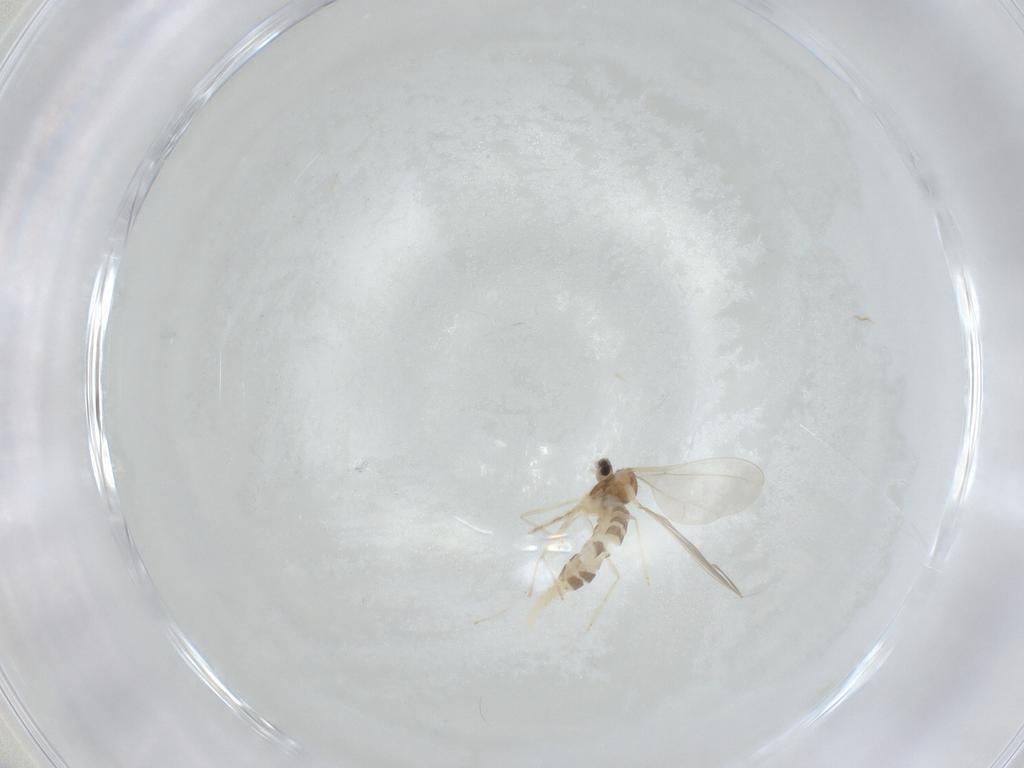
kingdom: Animalia
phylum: Arthropoda
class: Insecta
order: Diptera
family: Cecidomyiidae
